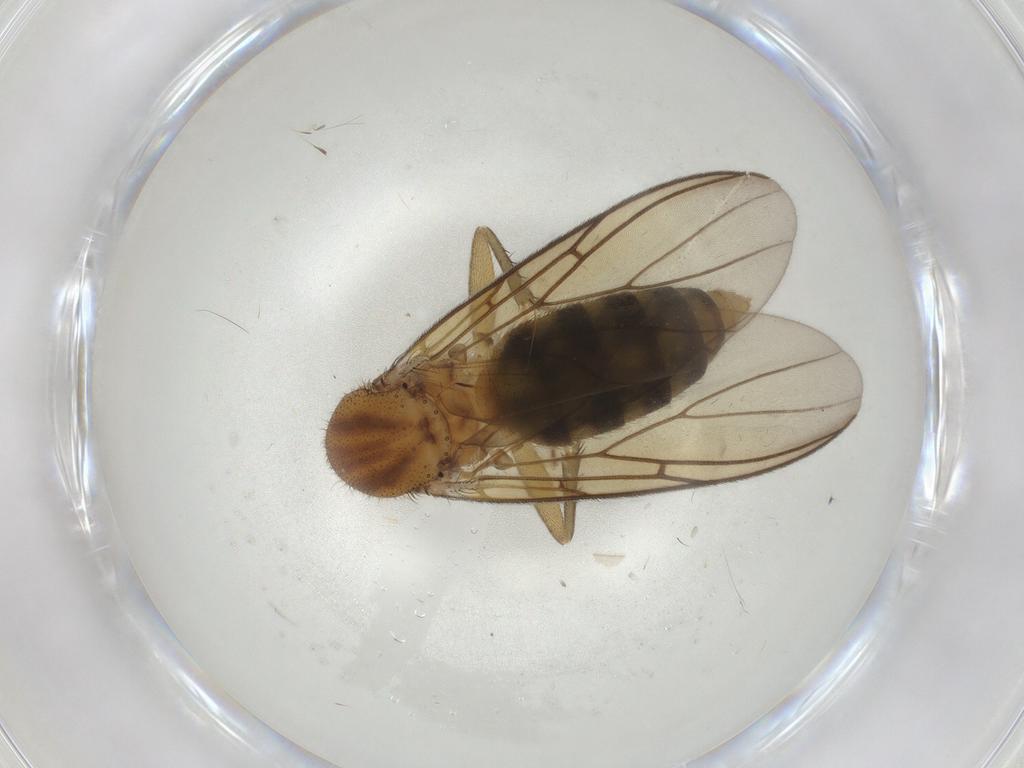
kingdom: Animalia
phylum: Arthropoda
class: Insecta
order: Diptera
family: Mycetophilidae
